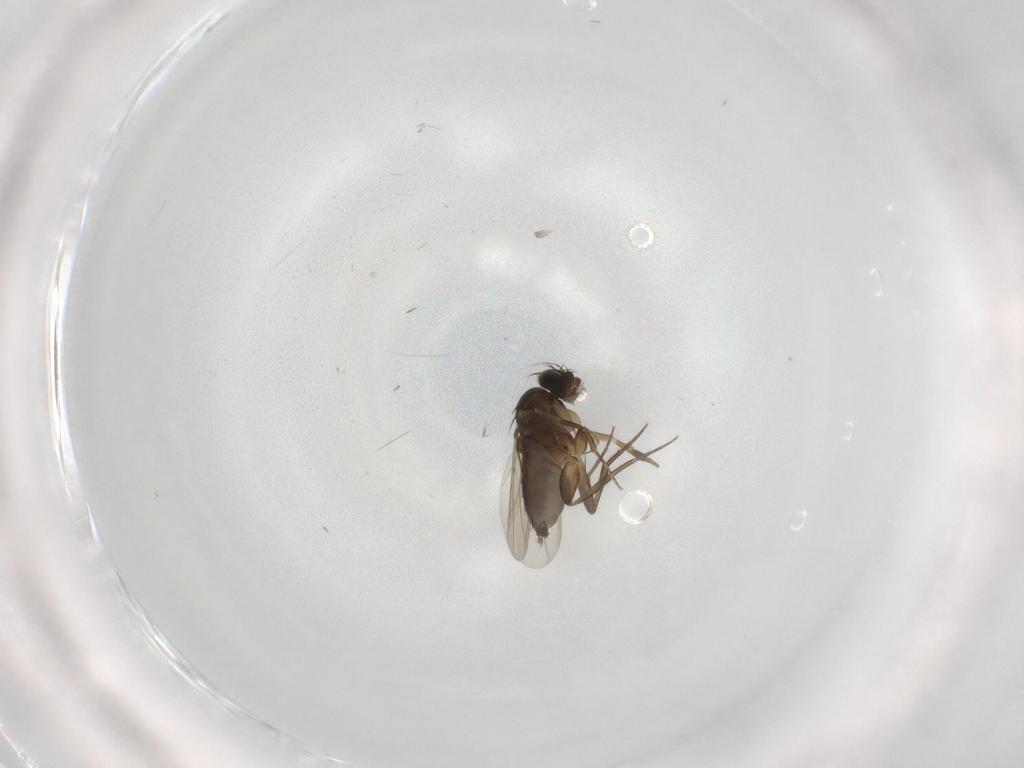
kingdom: Animalia
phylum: Arthropoda
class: Insecta
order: Diptera
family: Phoridae
